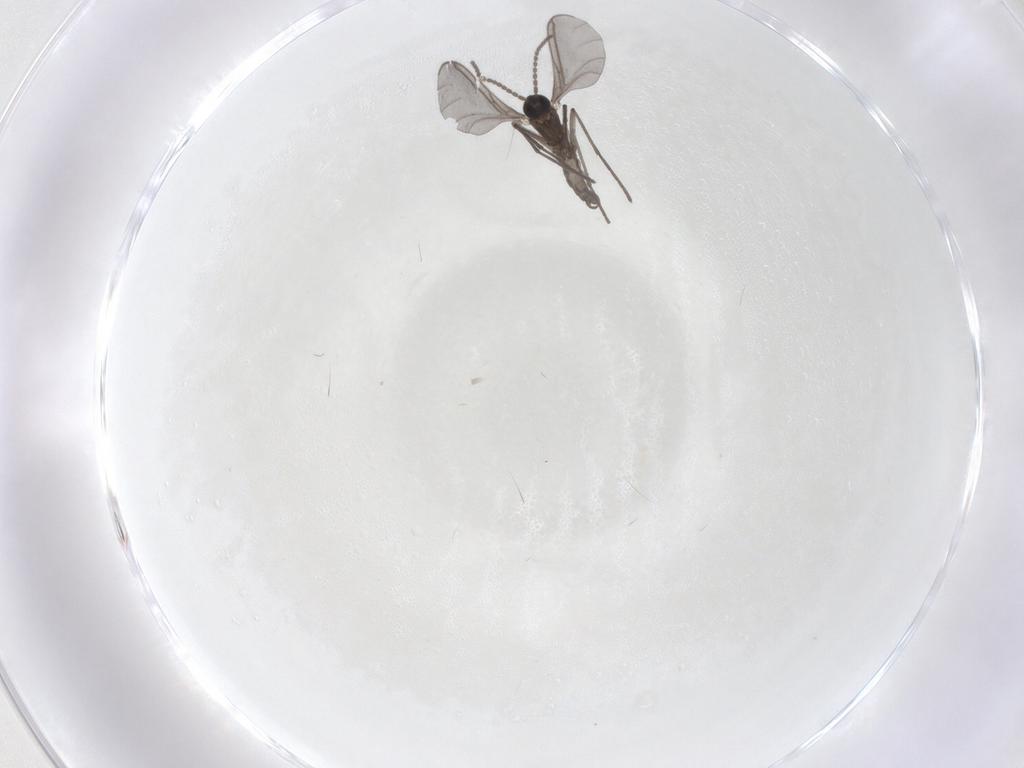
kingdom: Animalia
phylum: Arthropoda
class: Insecta
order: Diptera
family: Sciaridae
